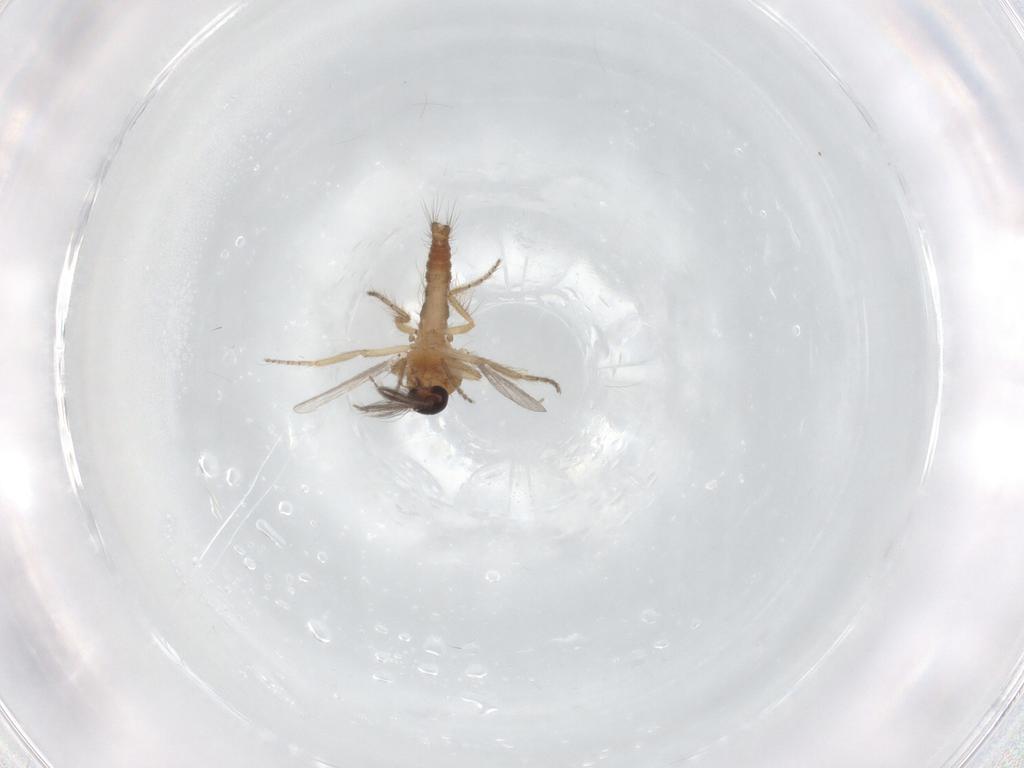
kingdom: Animalia
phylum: Arthropoda
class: Insecta
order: Diptera
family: Ceratopogonidae
